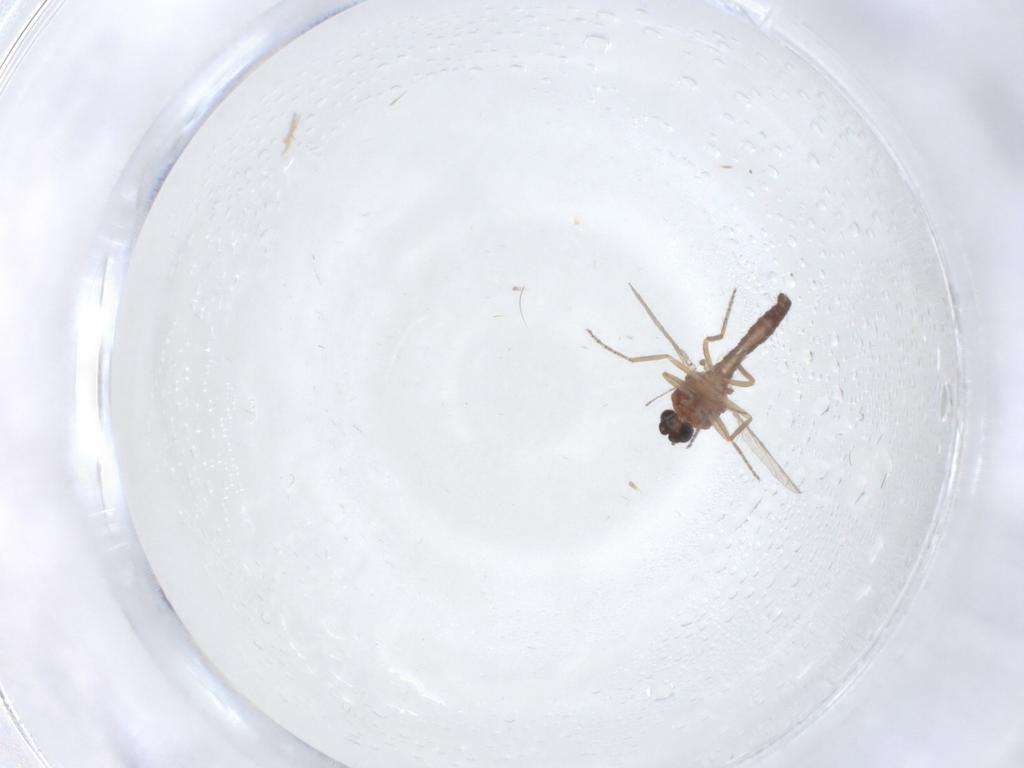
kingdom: Animalia
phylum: Arthropoda
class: Insecta
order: Diptera
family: Ceratopogonidae
